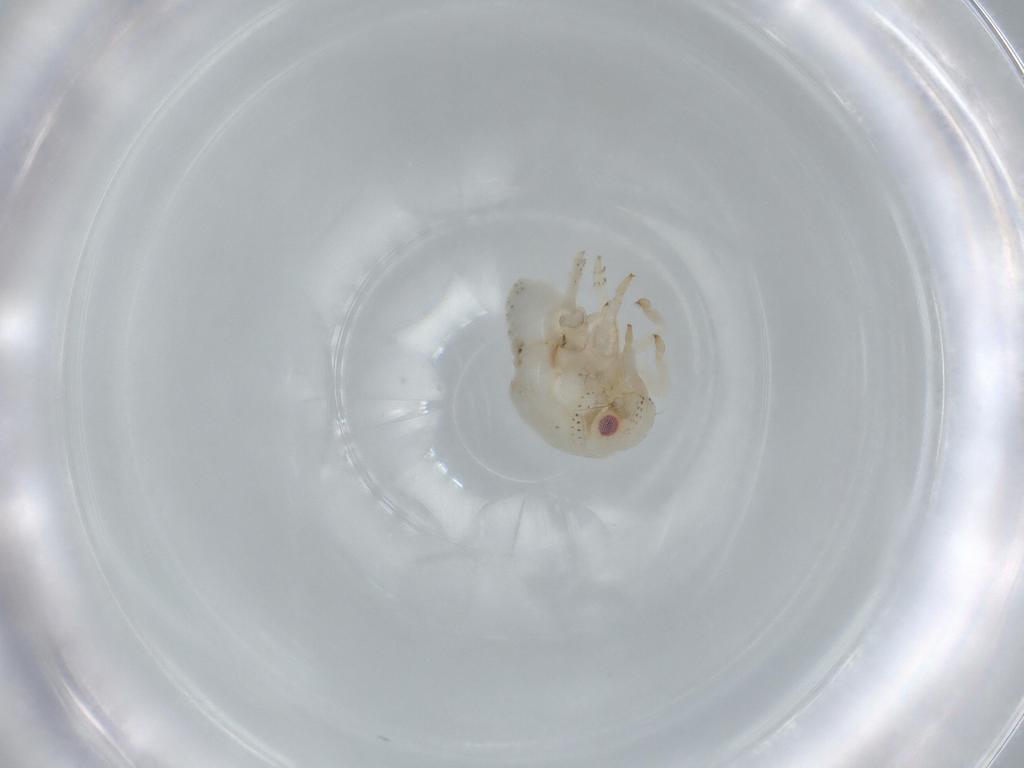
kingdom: Animalia
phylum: Arthropoda
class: Insecta
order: Hemiptera
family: Acanaloniidae
